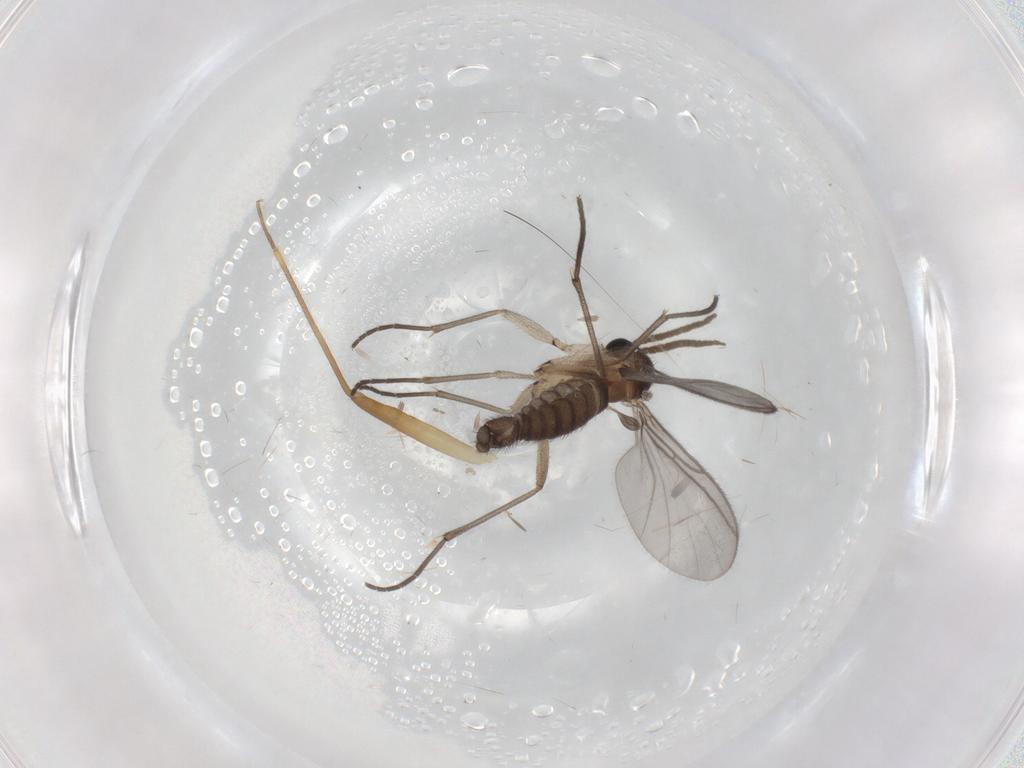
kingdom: Animalia
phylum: Arthropoda
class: Insecta
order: Diptera
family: Cecidomyiidae
